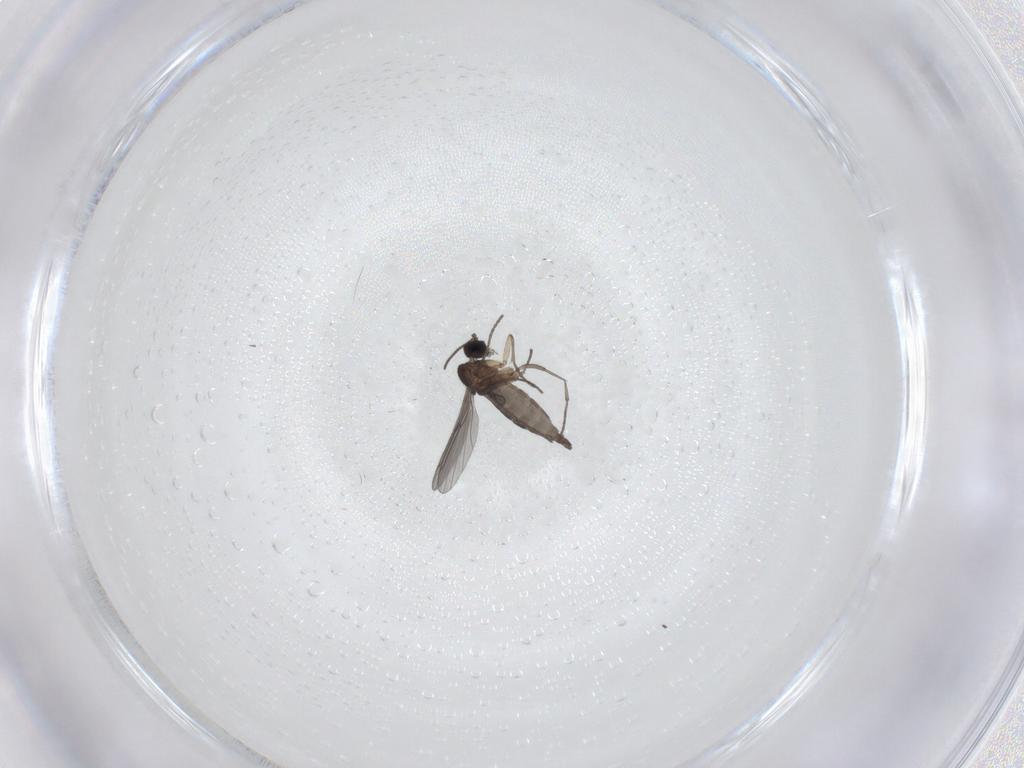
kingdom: Animalia
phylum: Arthropoda
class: Insecta
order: Diptera
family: Sciaridae
